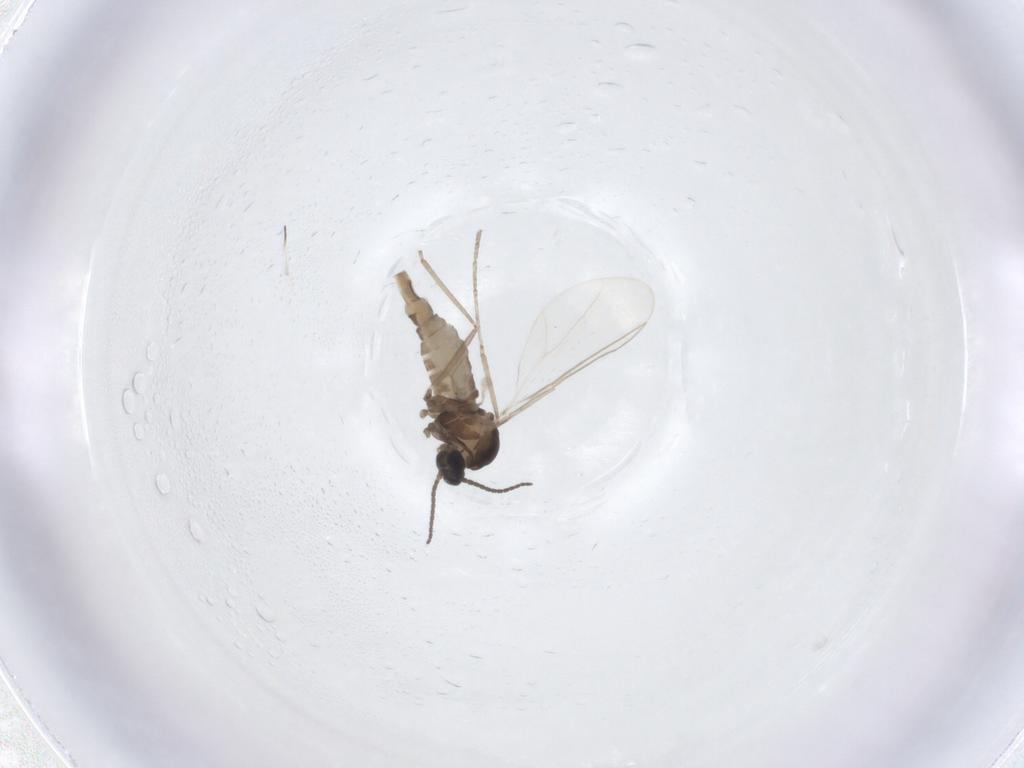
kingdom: Animalia
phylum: Arthropoda
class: Insecta
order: Diptera
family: Cecidomyiidae
